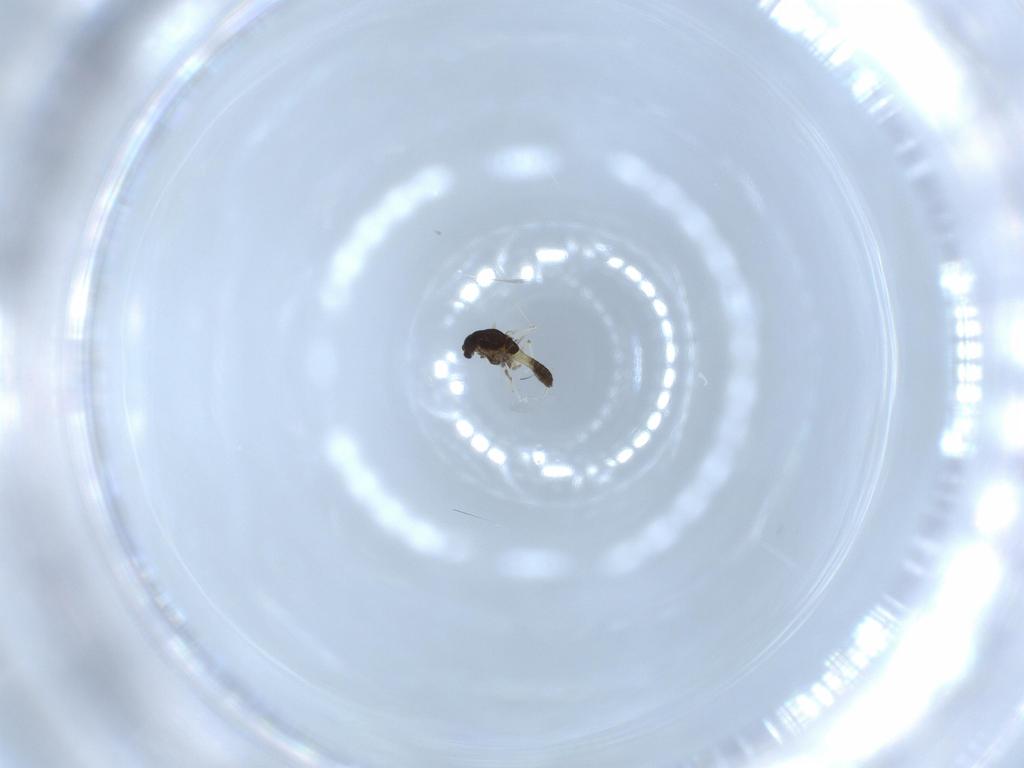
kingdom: Animalia
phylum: Arthropoda
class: Insecta
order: Diptera
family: Chironomidae
